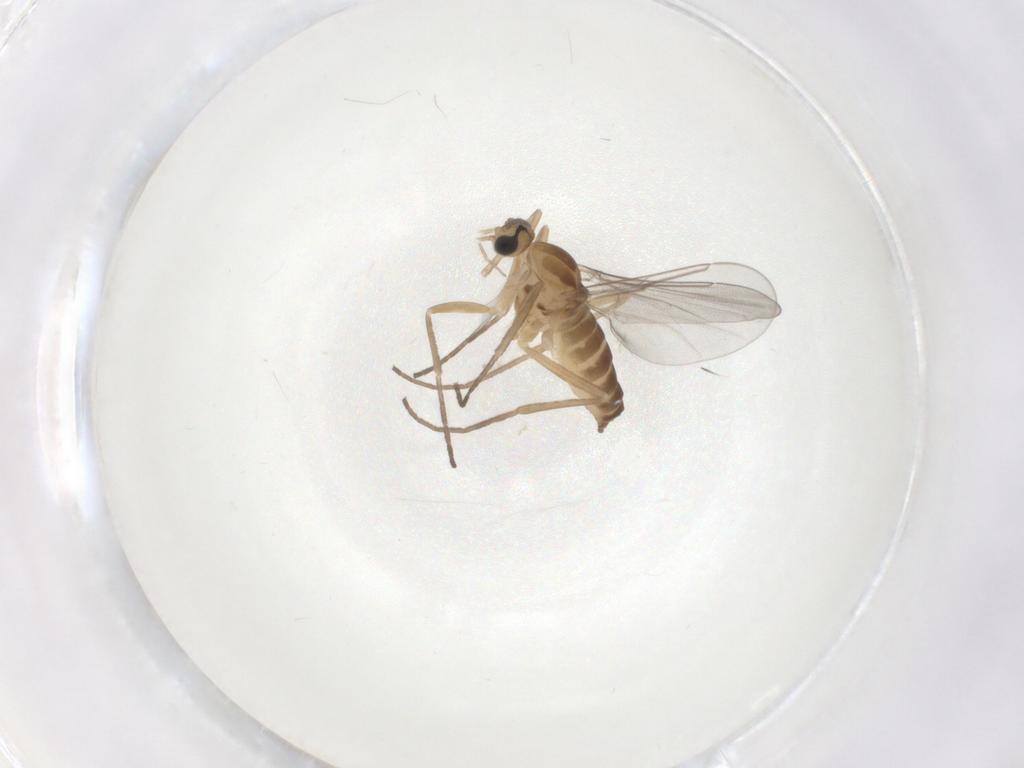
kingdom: Animalia
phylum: Arthropoda
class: Insecta
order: Diptera
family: Cecidomyiidae
